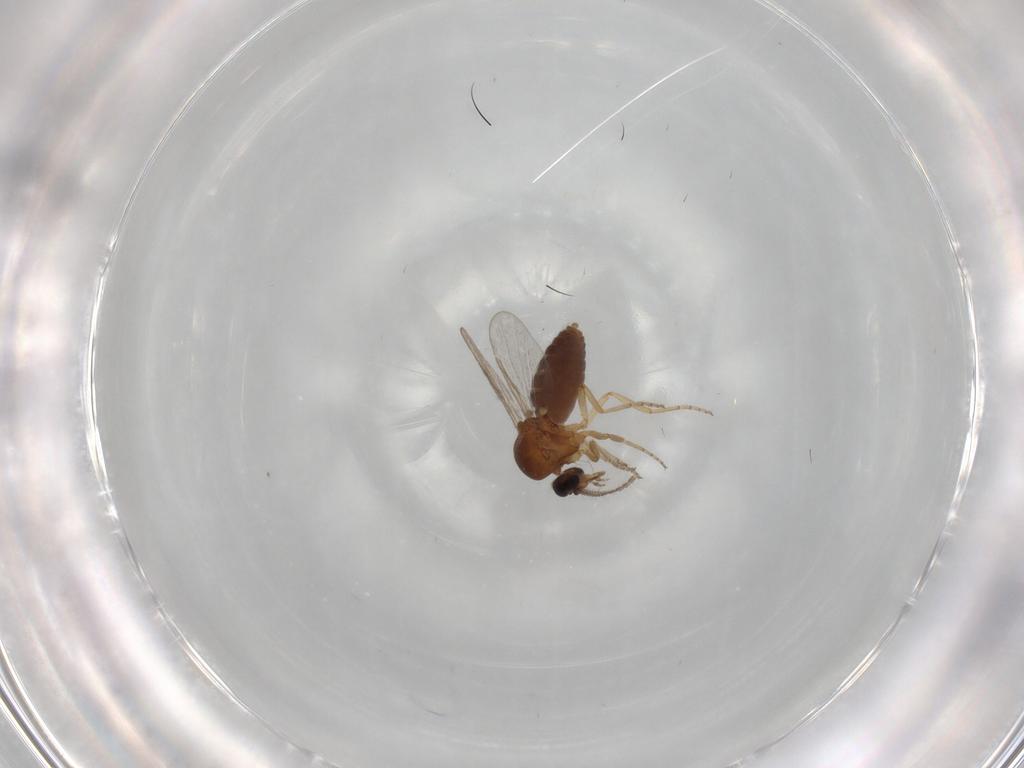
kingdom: Animalia
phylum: Arthropoda
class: Insecta
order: Diptera
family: Ceratopogonidae
